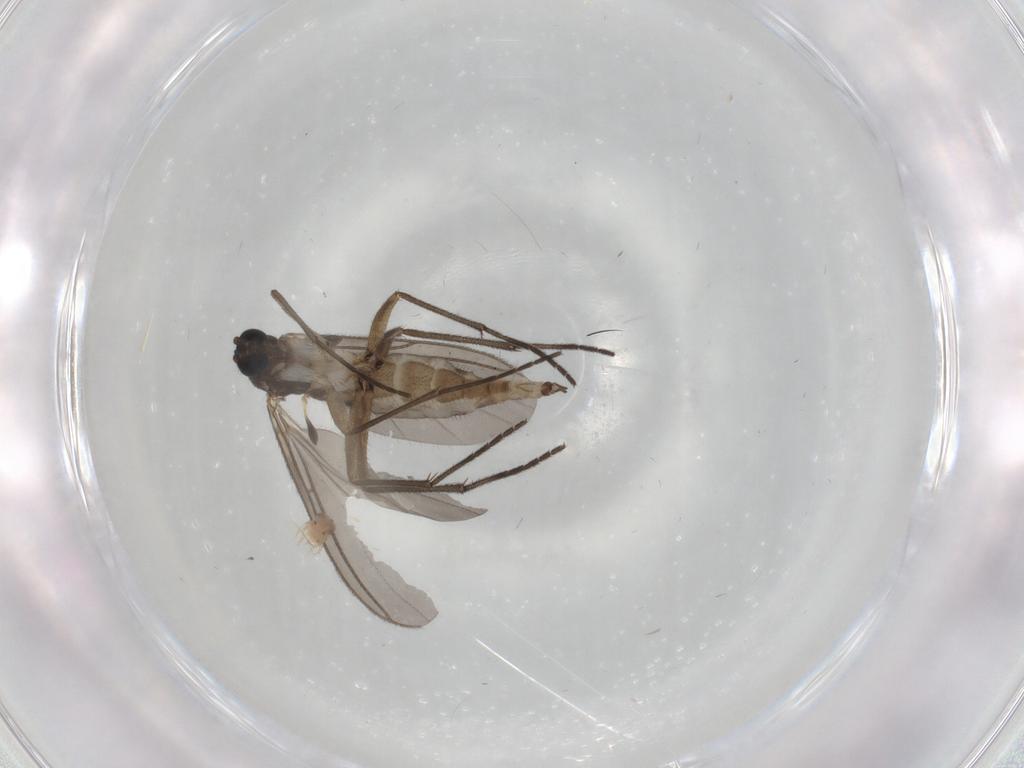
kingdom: Animalia
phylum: Arthropoda
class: Insecta
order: Diptera
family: Sciaridae
